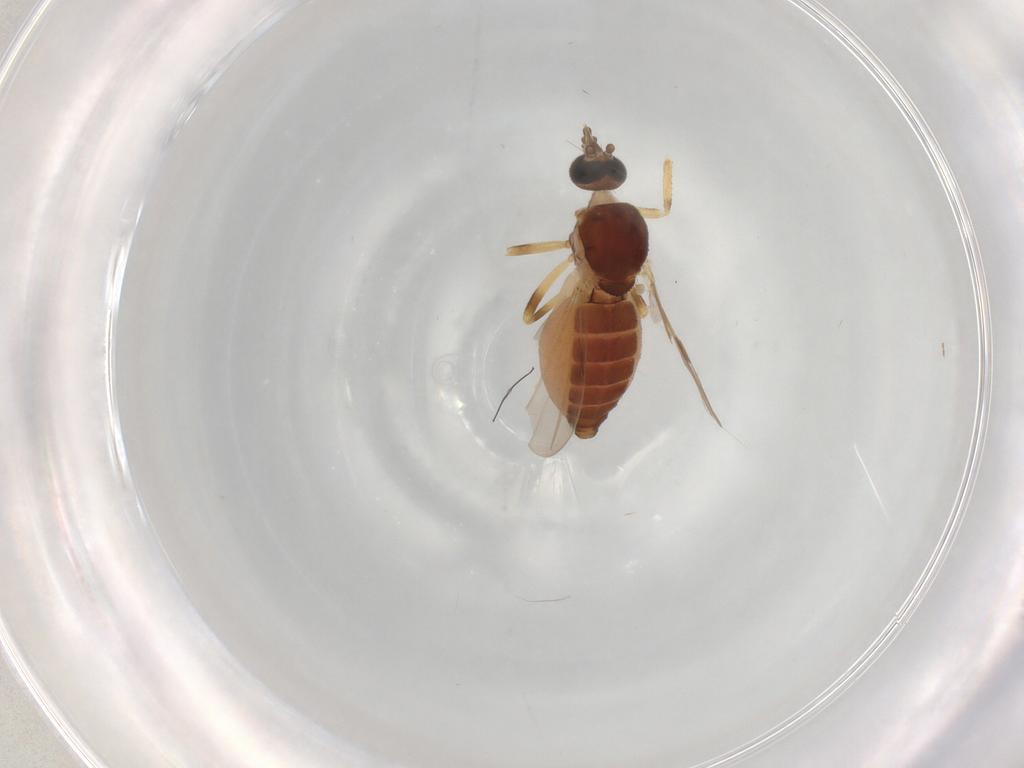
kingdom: Animalia
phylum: Arthropoda
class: Insecta
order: Diptera
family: Ceratopogonidae
